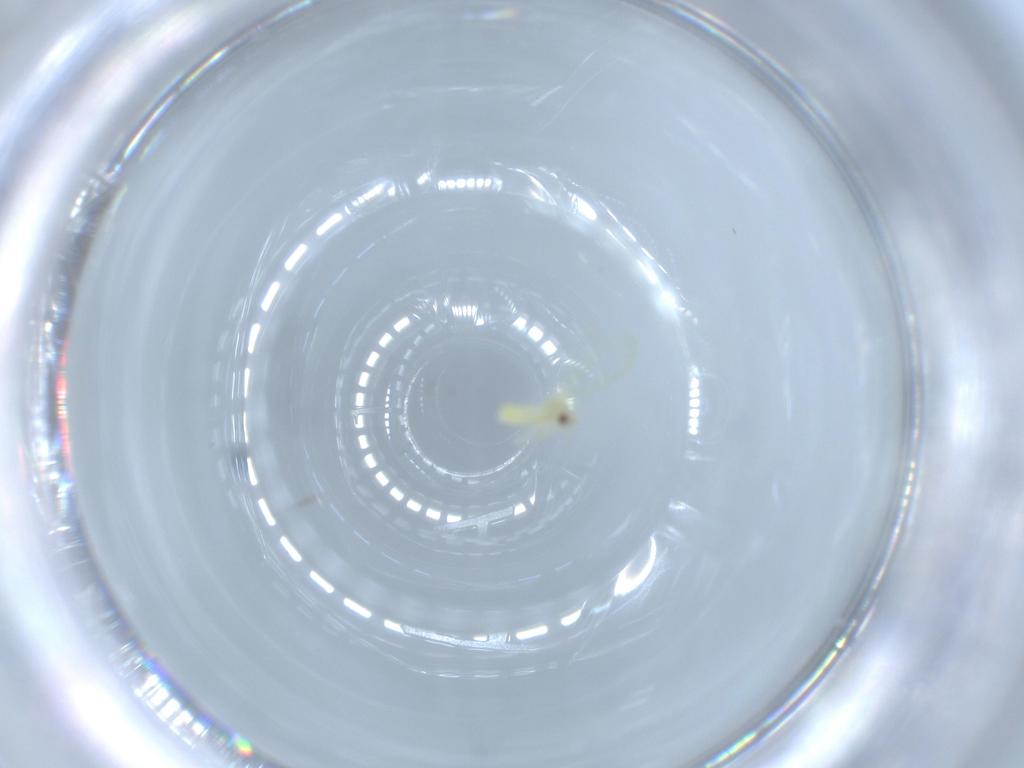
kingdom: Animalia
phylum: Arthropoda
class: Insecta
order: Hemiptera
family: Aleyrodidae
